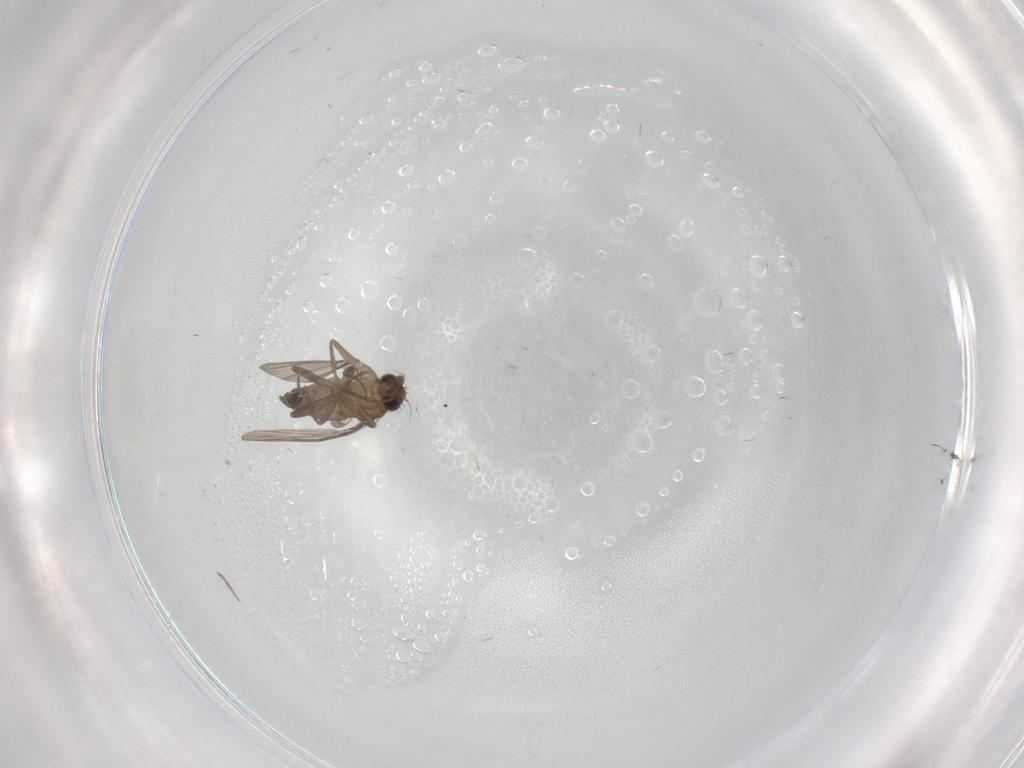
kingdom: Animalia
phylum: Arthropoda
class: Insecta
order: Diptera
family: Phoridae
